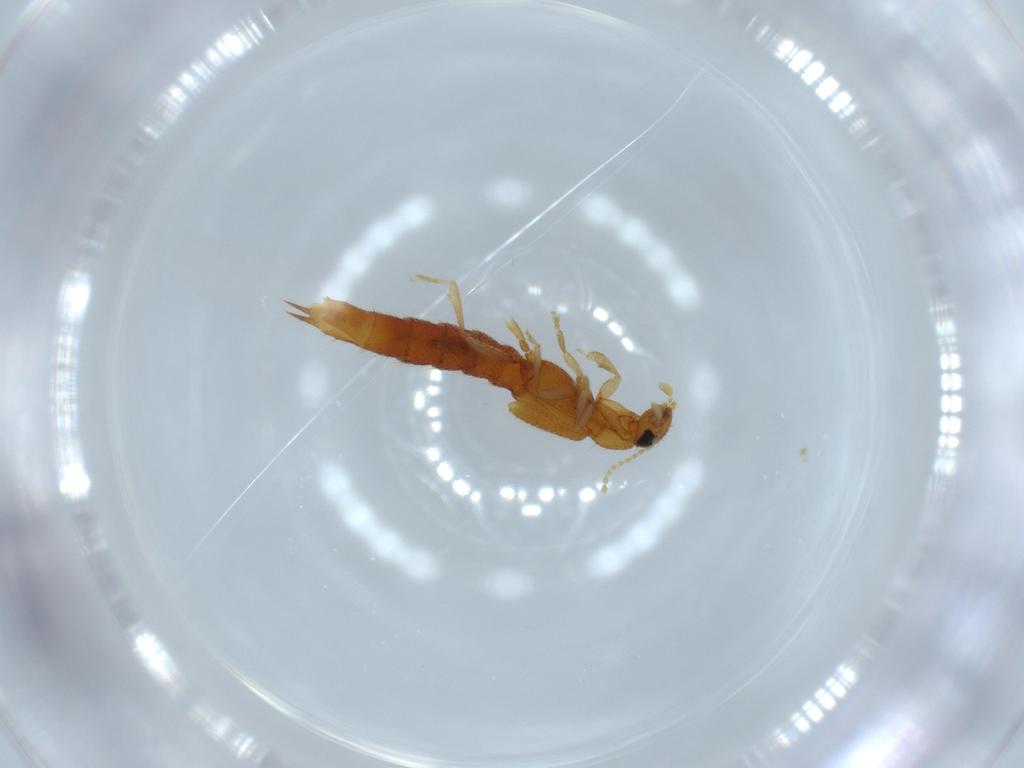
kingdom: Animalia
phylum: Arthropoda
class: Insecta
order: Coleoptera
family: Staphylinidae
